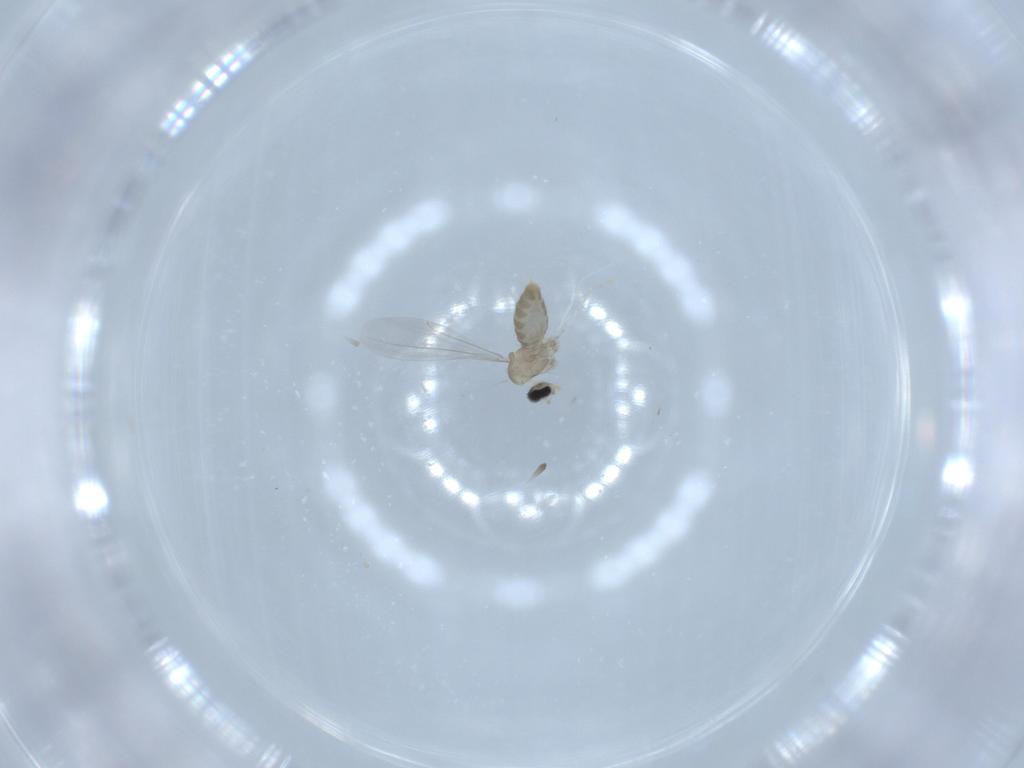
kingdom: Animalia
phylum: Arthropoda
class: Insecta
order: Diptera
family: Cecidomyiidae
